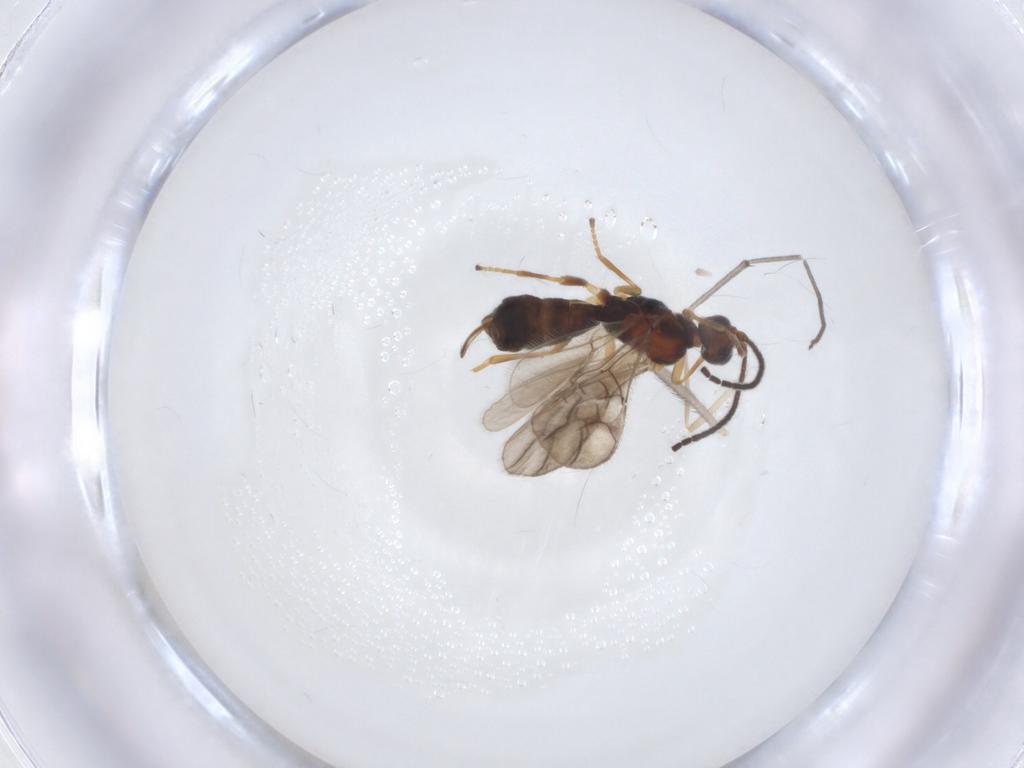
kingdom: Animalia
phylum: Arthropoda
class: Insecta
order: Hymenoptera
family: Braconidae
